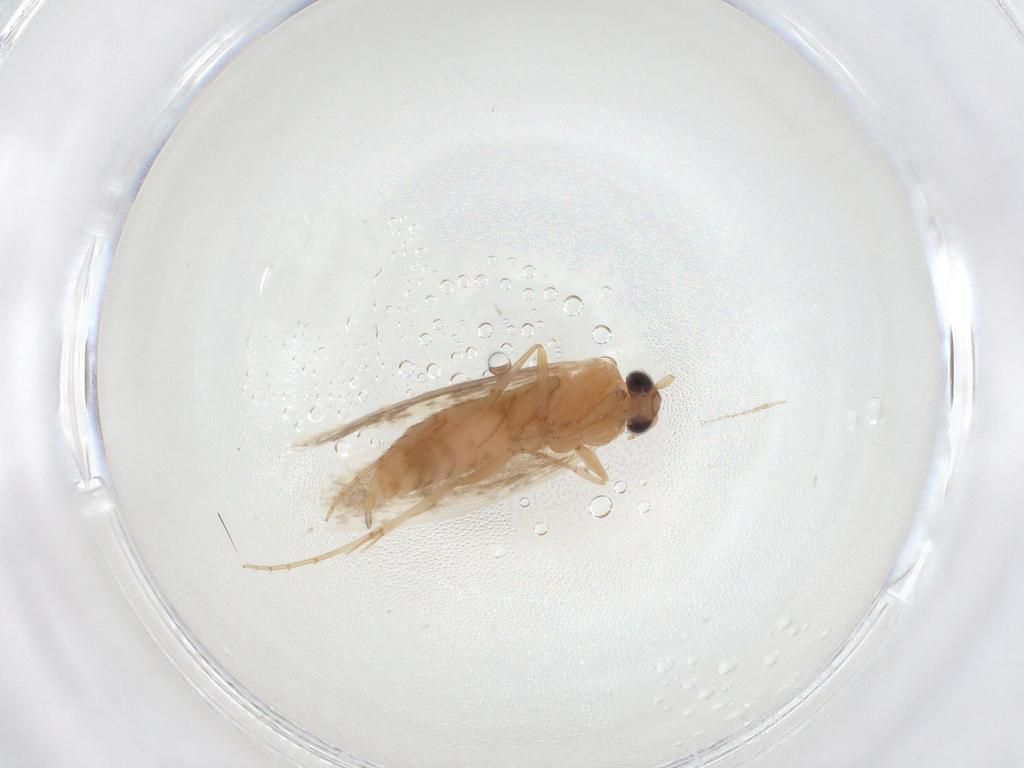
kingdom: Animalia
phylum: Arthropoda
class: Insecta
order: Lepidoptera
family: Nepticulidae
